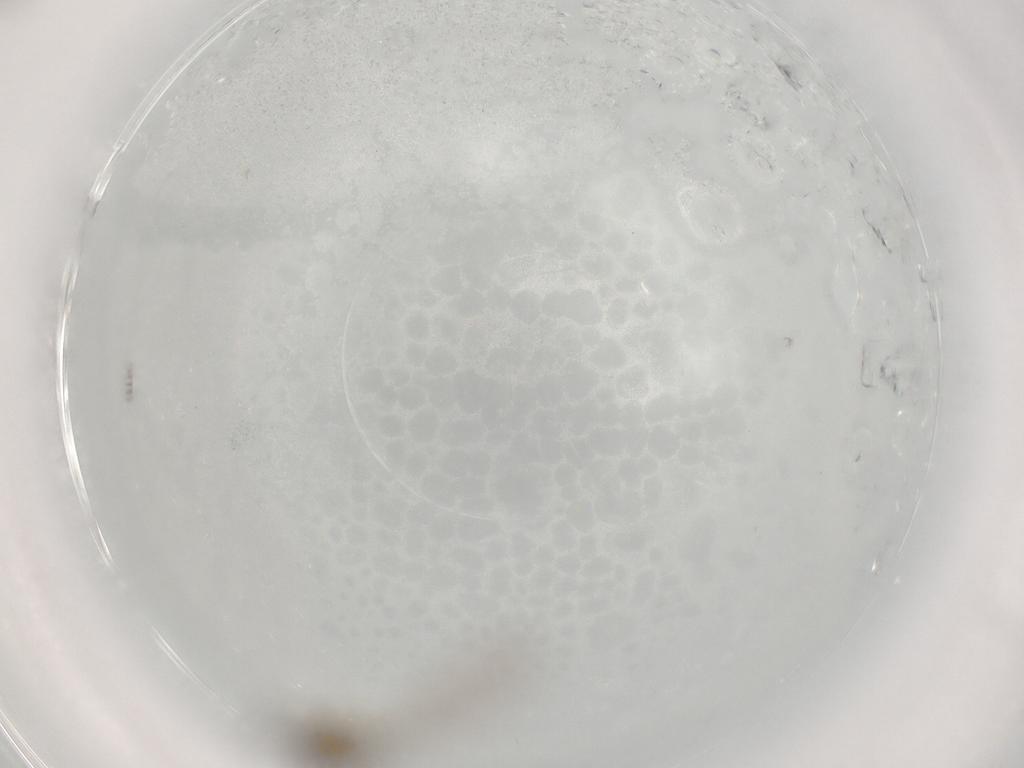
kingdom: Animalia
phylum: Arthropoda
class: Insecta
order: Diptera
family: Chironomidae
